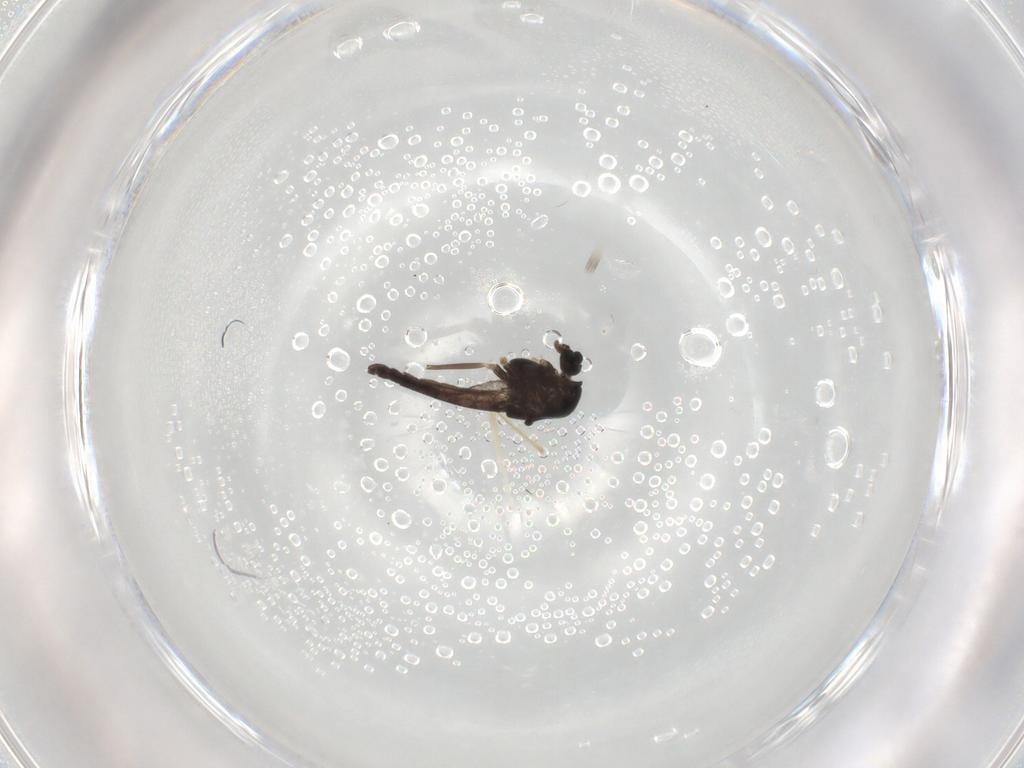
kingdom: Animalia
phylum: Arthropoda
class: Insecta
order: Diptera
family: Chironomidae
